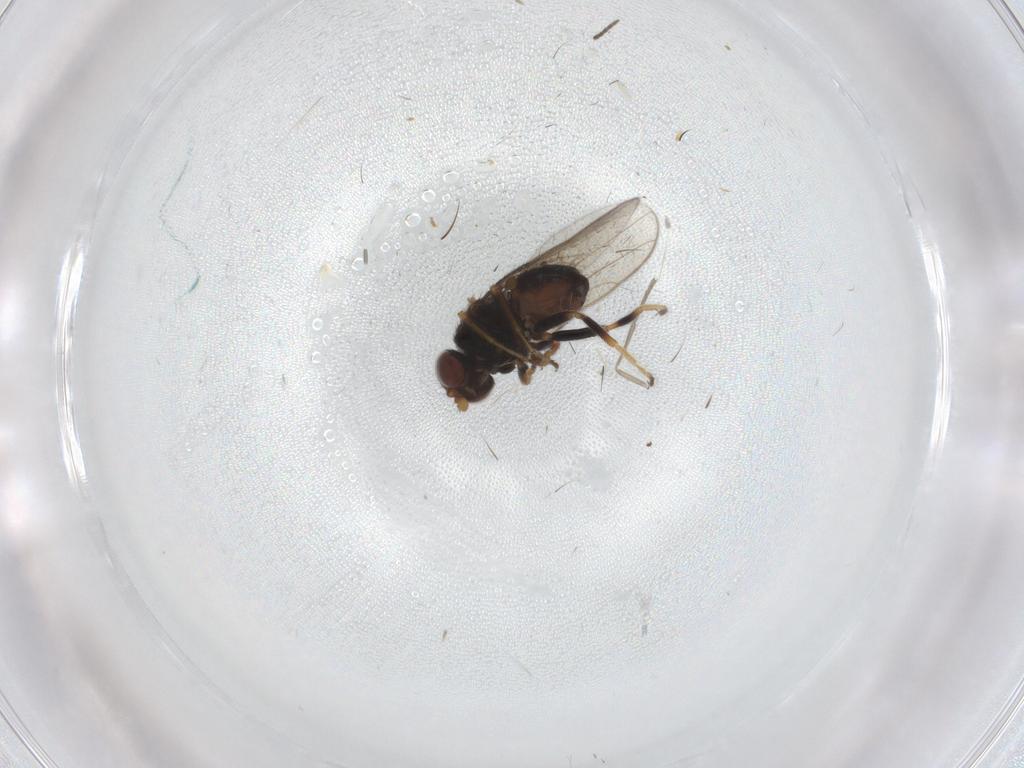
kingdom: Animalia
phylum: Arthropoda
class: Insecta
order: Diptera
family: Chloropidae
